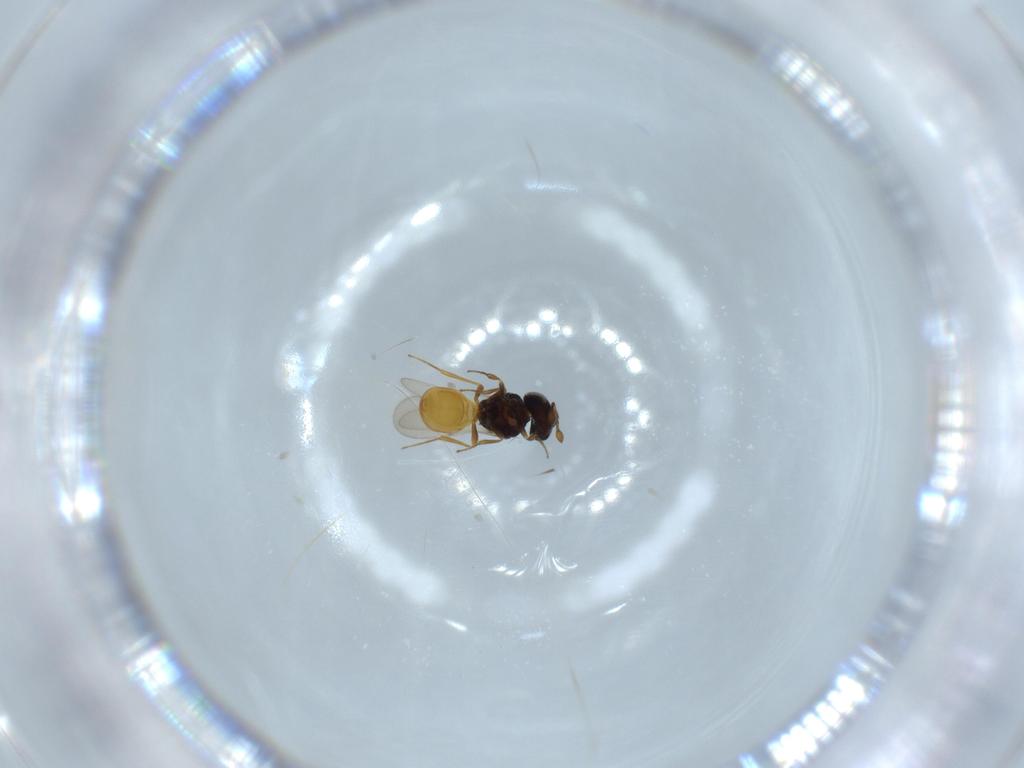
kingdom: Animalia
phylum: Arthropoda
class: Insecta
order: Hymenoptera
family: Scelionidae
